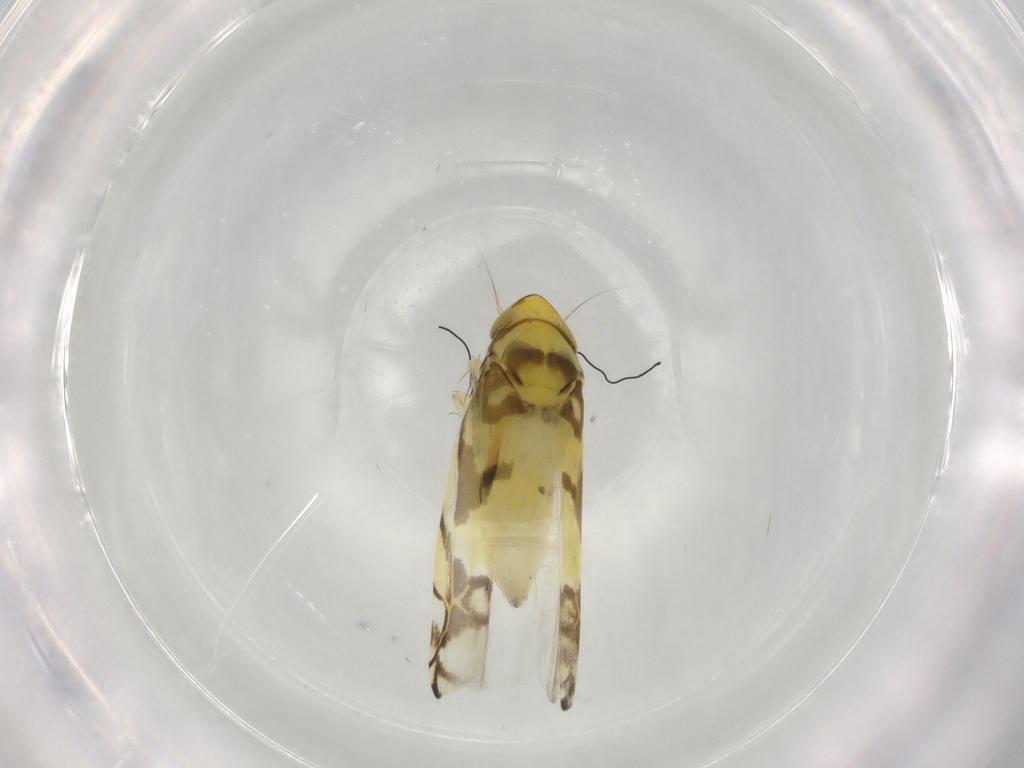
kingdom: Animalia
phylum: Arthropoda
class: Insecta
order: Hemiptera
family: Cicadellidae
